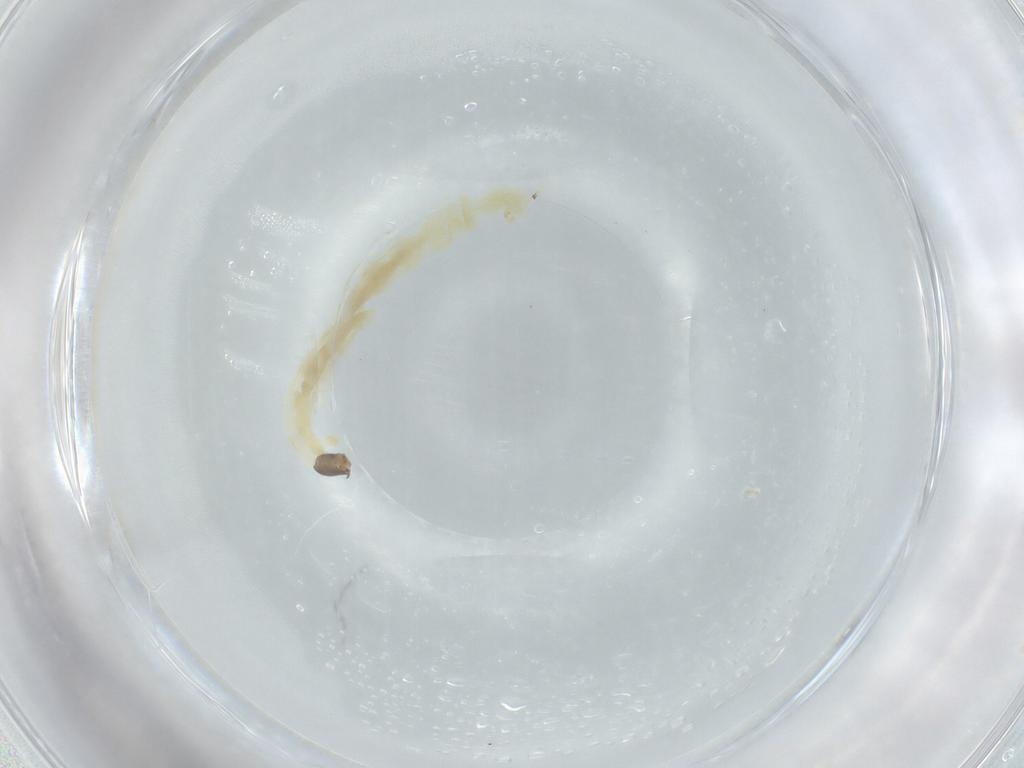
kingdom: Animalia
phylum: Arthropoda
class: Insecta
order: Diptera
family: Chironomidae
